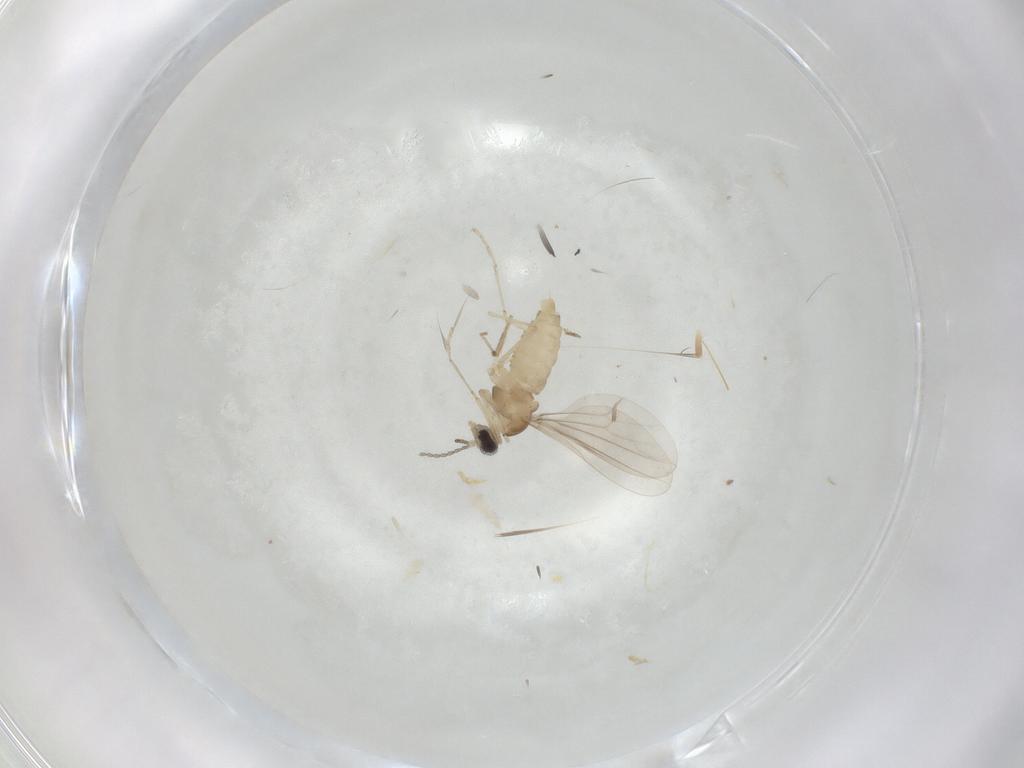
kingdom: Animalia
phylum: Arthropoda
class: Insecta
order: Diptera
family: Cecidomyiidae
